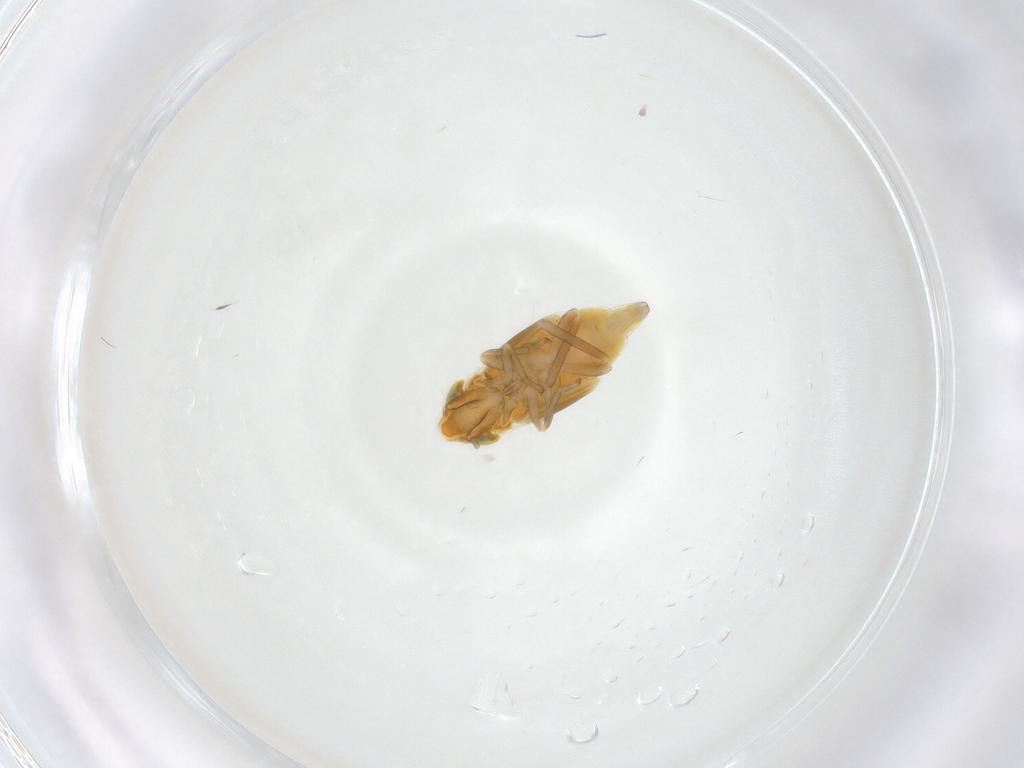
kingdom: Animalia
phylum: Arthropoda
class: Insecta
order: Hemiptera
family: Cicadellidae
